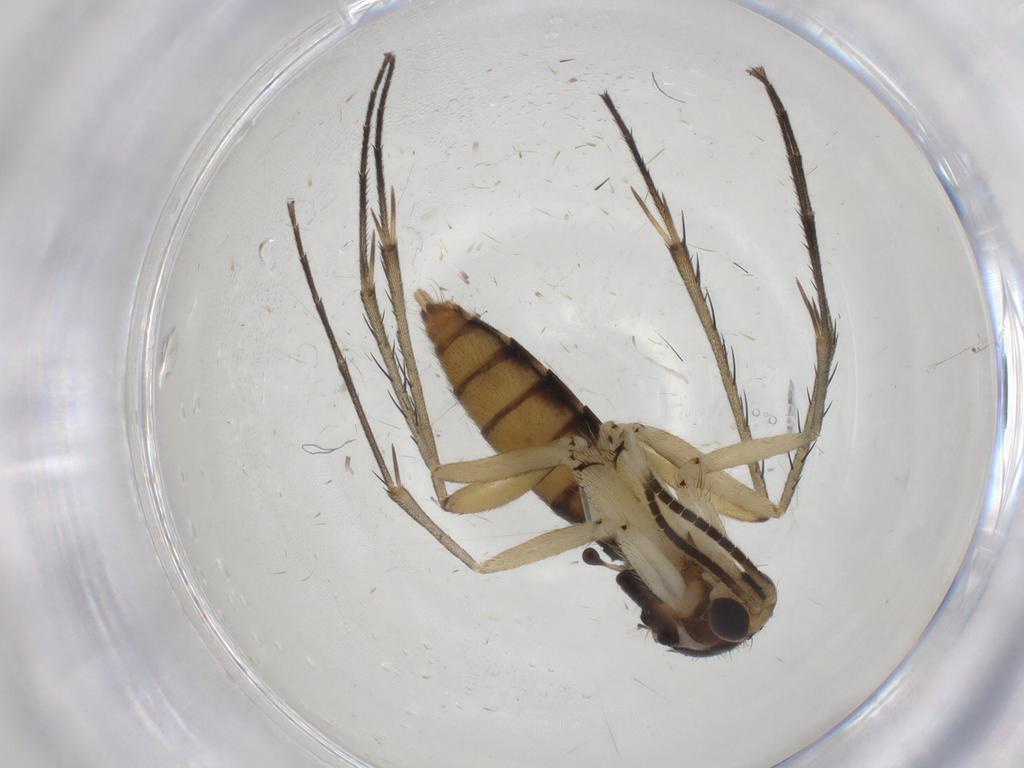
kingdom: Animalia
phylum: Arthropoda
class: Insecta
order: Diptera
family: Mycetophilidae
